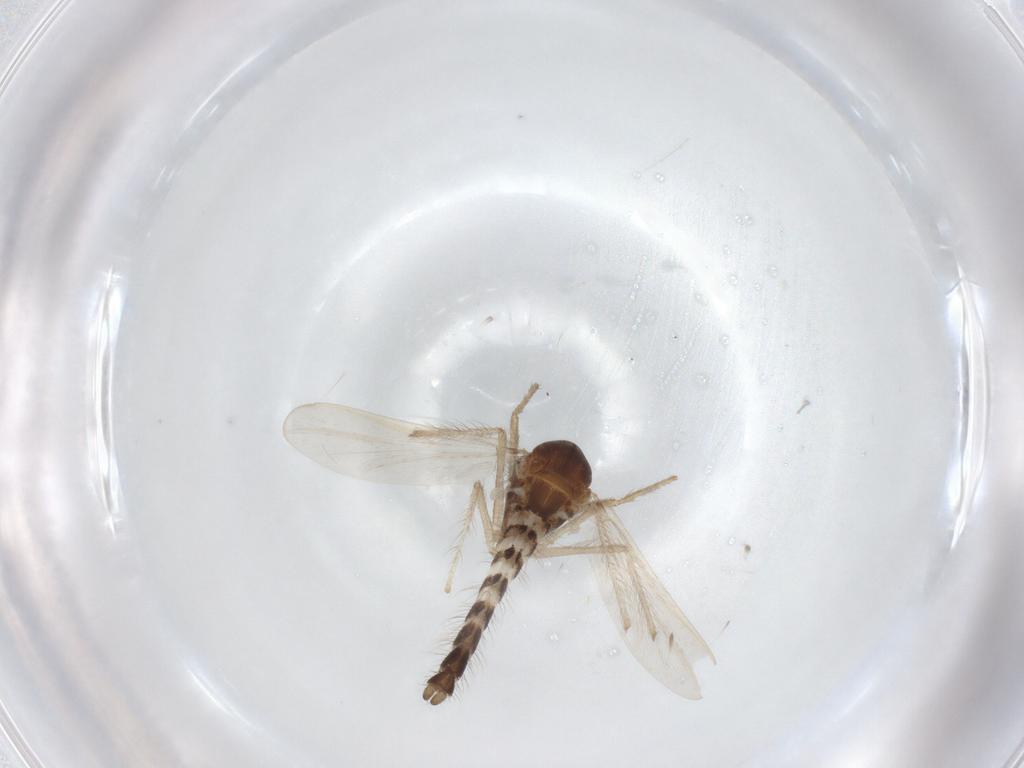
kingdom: Animalia
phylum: Arthropoda
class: Insecta
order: Diptera
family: Chironomidae
